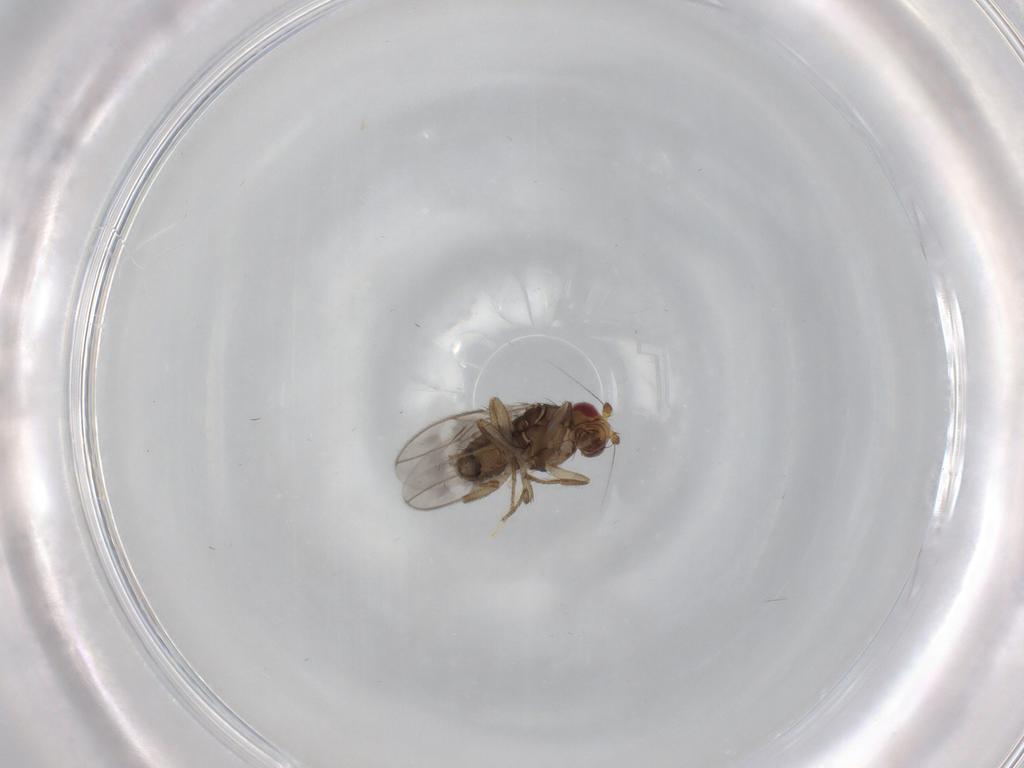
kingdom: Animalia
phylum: Arthropoda
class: Insecta
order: Diptera
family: Sphaeroceridae
